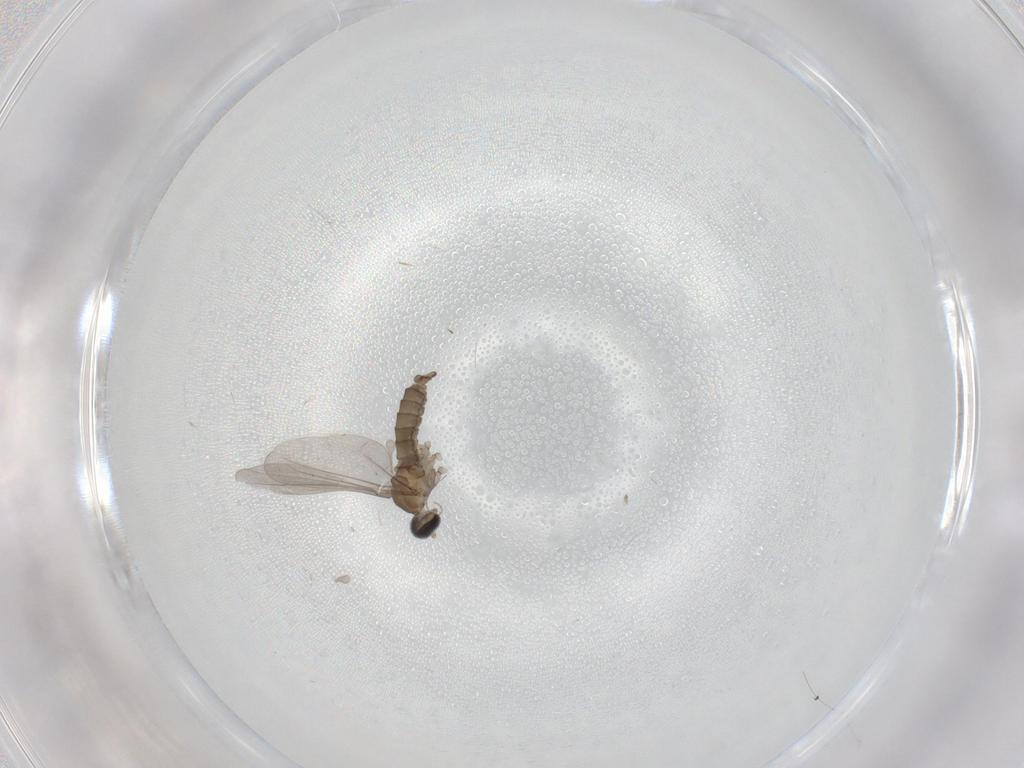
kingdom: Animalia
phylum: Arthropoda
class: Insecta
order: Diptera
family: Cecidomyiidae
